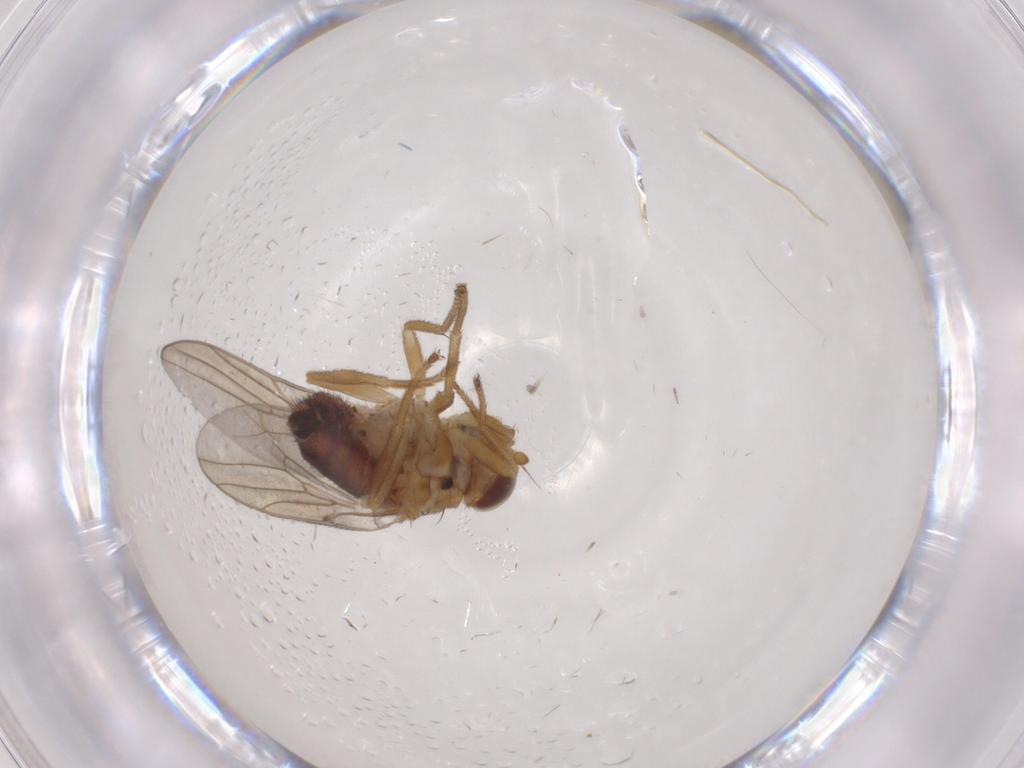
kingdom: Animalia
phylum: Arthropoda
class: Insecta
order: Diptera
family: Chloropidae
